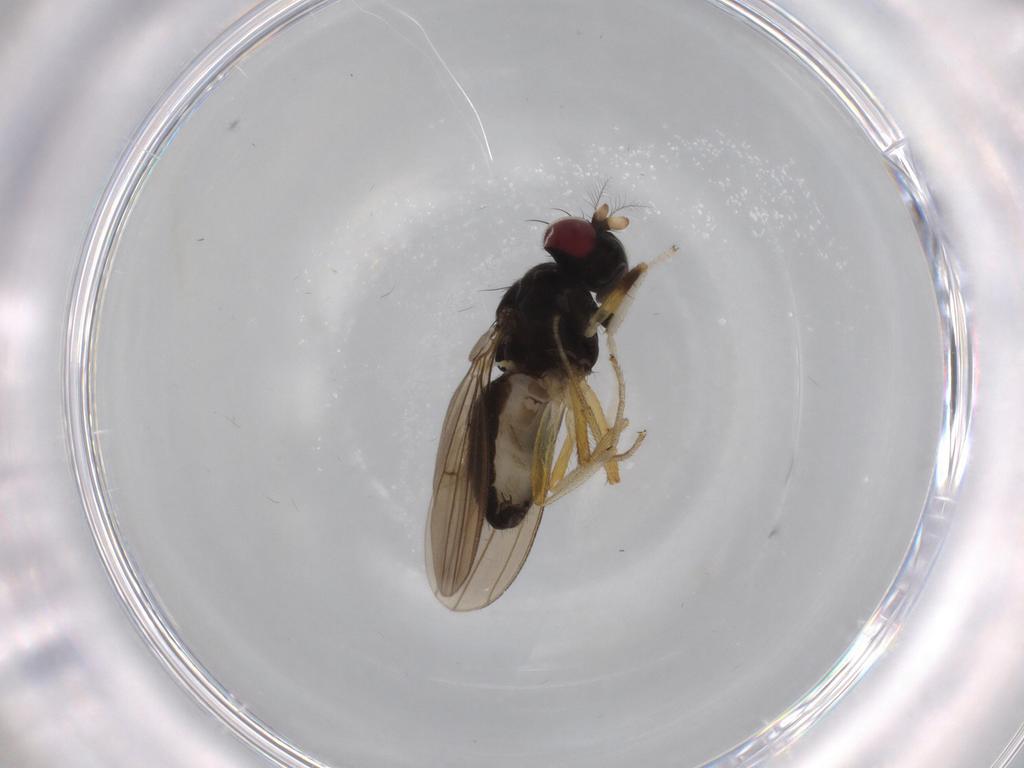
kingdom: Animalia
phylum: Arthropoda
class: Insecta
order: Diptera
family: Lauxaniidae
